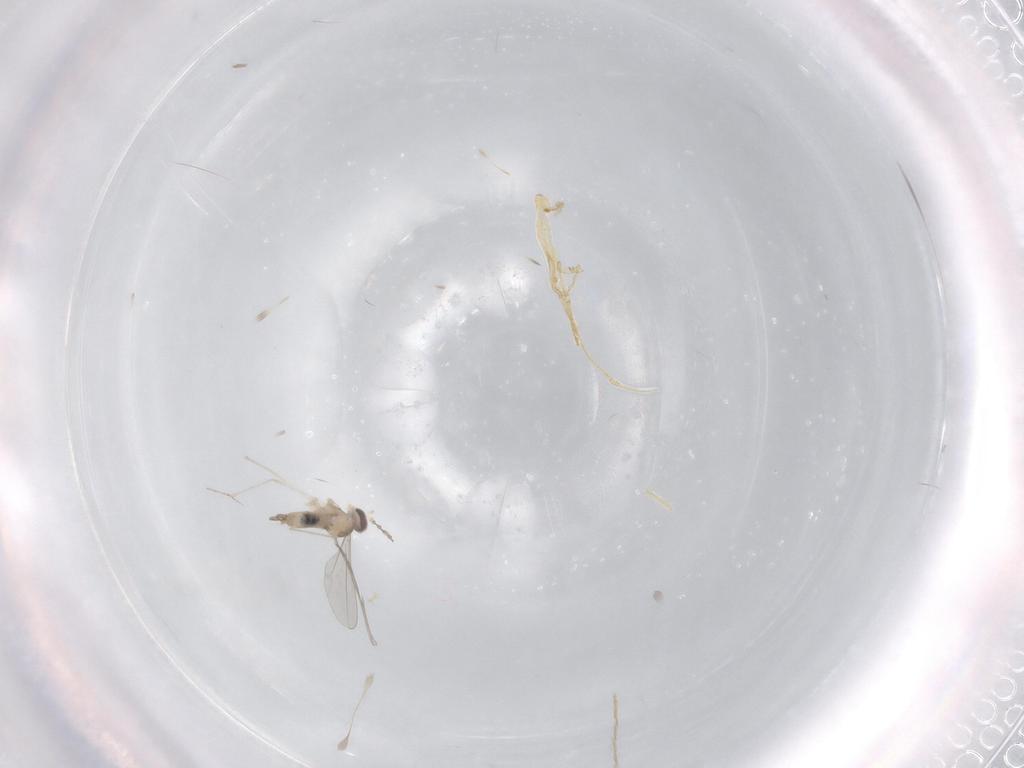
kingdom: Animalia
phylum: Arthropoda
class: Insecta
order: Diptera
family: Cecidomyiidae
